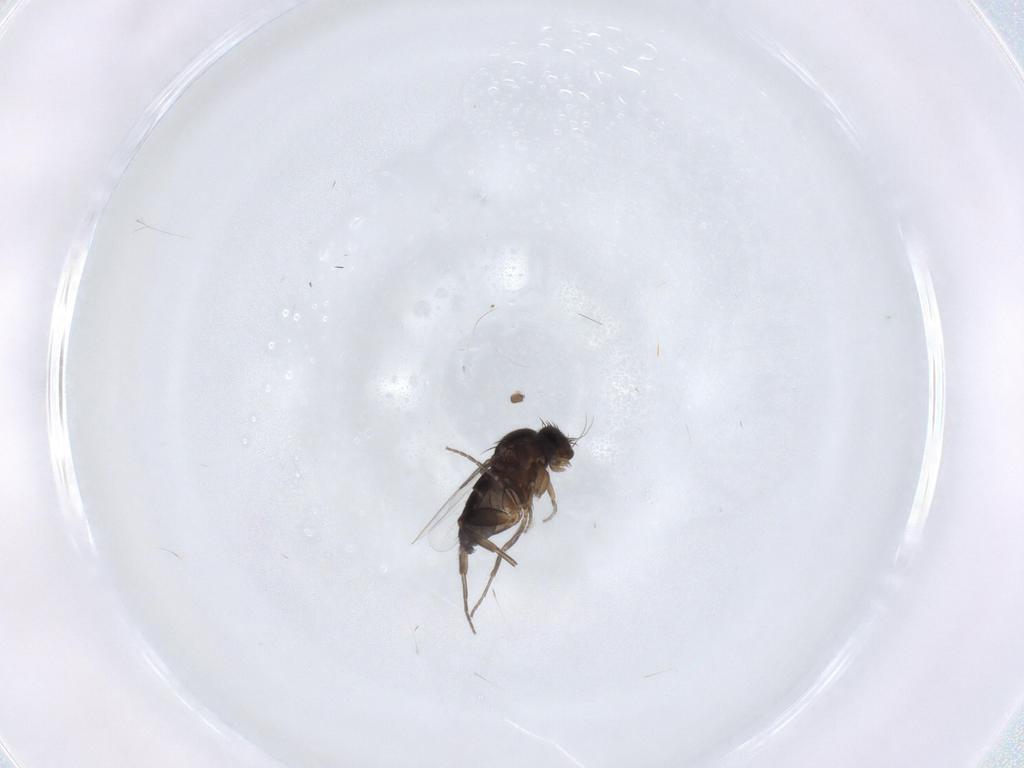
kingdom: Animalia
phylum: Arthropoda
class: Insecta
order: Diptera
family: Phoridae
